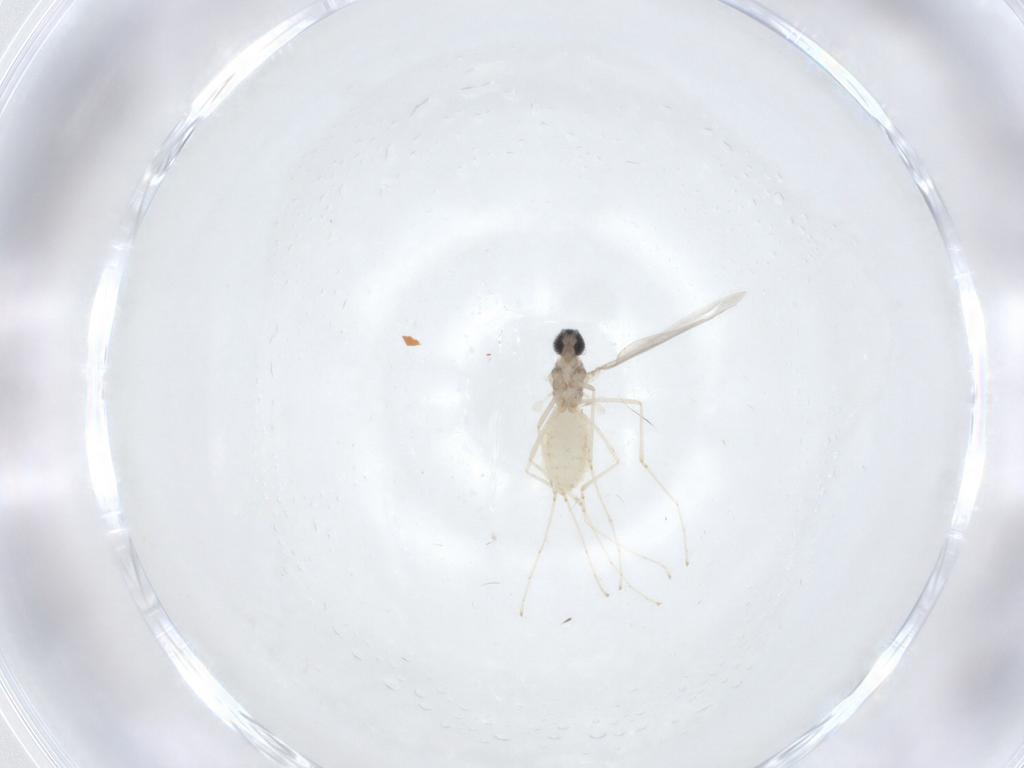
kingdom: Animalia
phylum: Arthropoda
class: Insecta
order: Diptera
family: Cecidomyiidae
